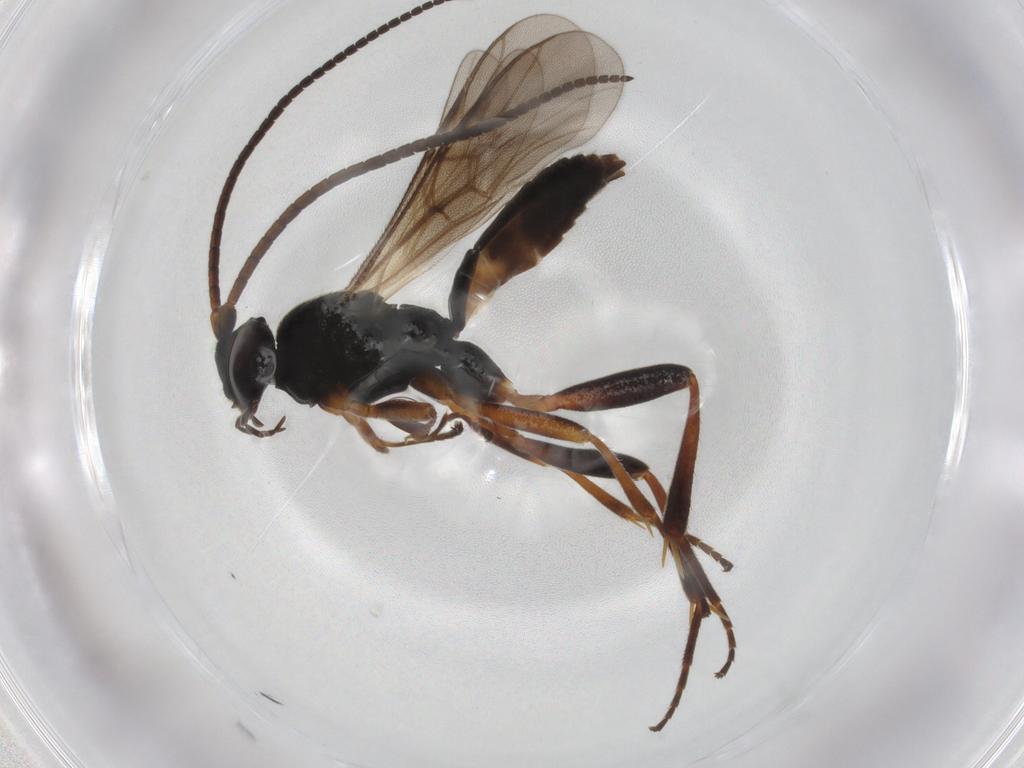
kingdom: Animalia
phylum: Arthropoda
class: Insecta
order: Hymenoptera
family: Braconidae
